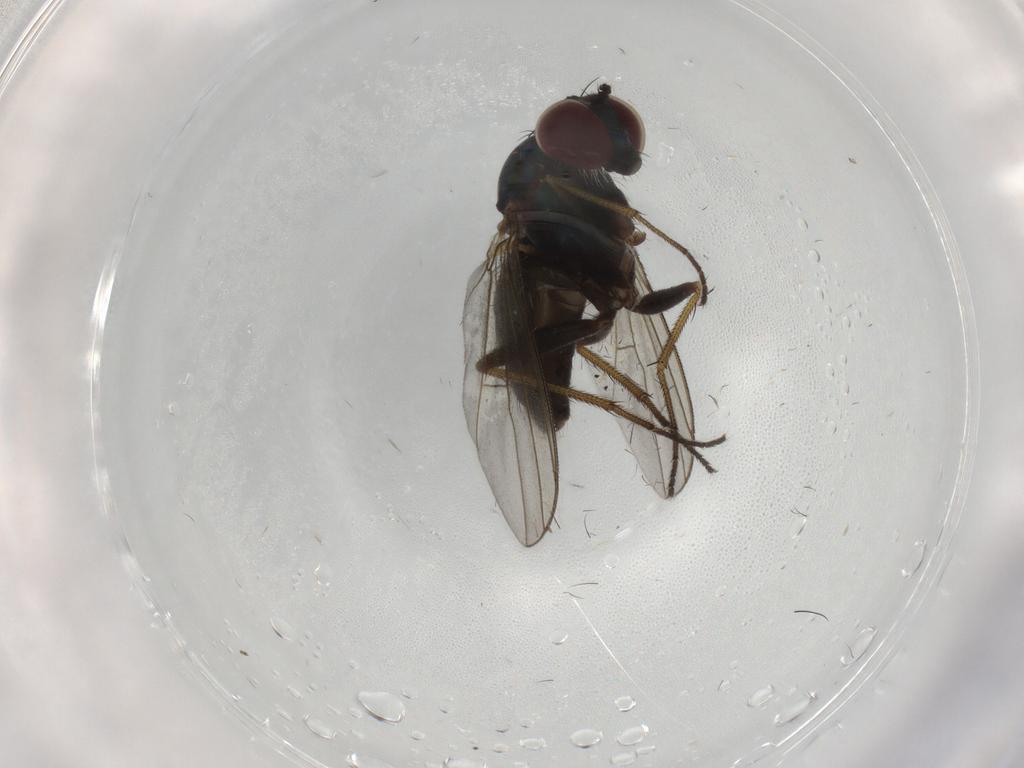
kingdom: Animalia
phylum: Arthropoda
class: Insecta
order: Diptera
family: Dolichopodidae
